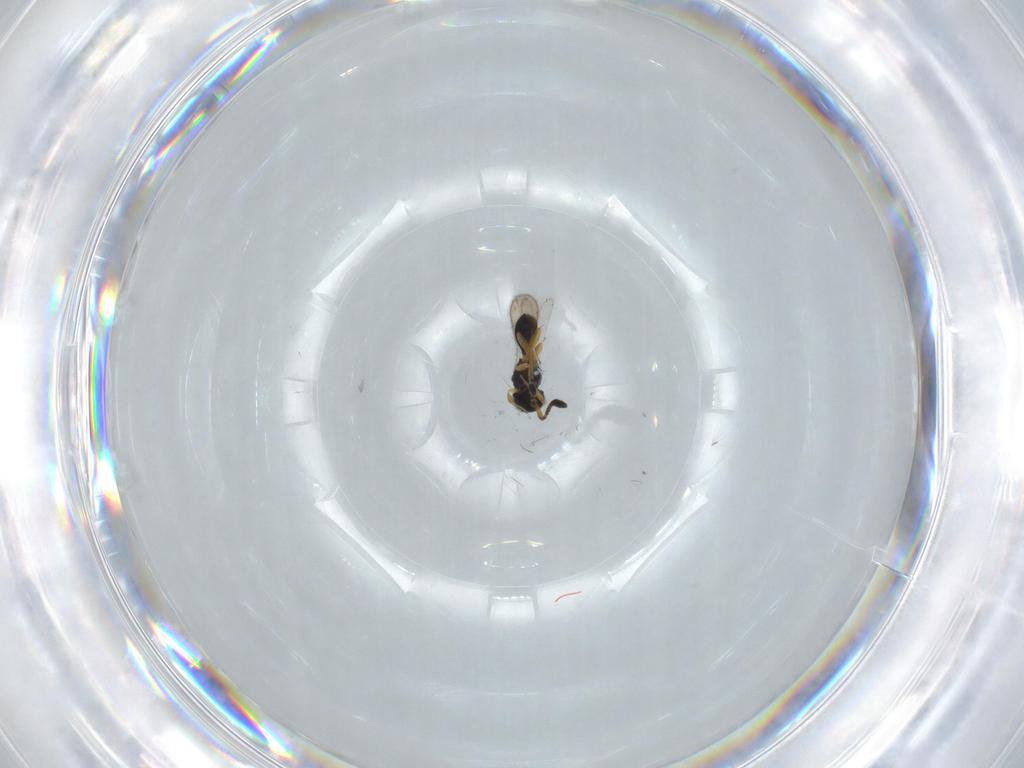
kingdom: Animalia
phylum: Arthropoda
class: Insecta
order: Hymenoptera
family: Scelionidae
